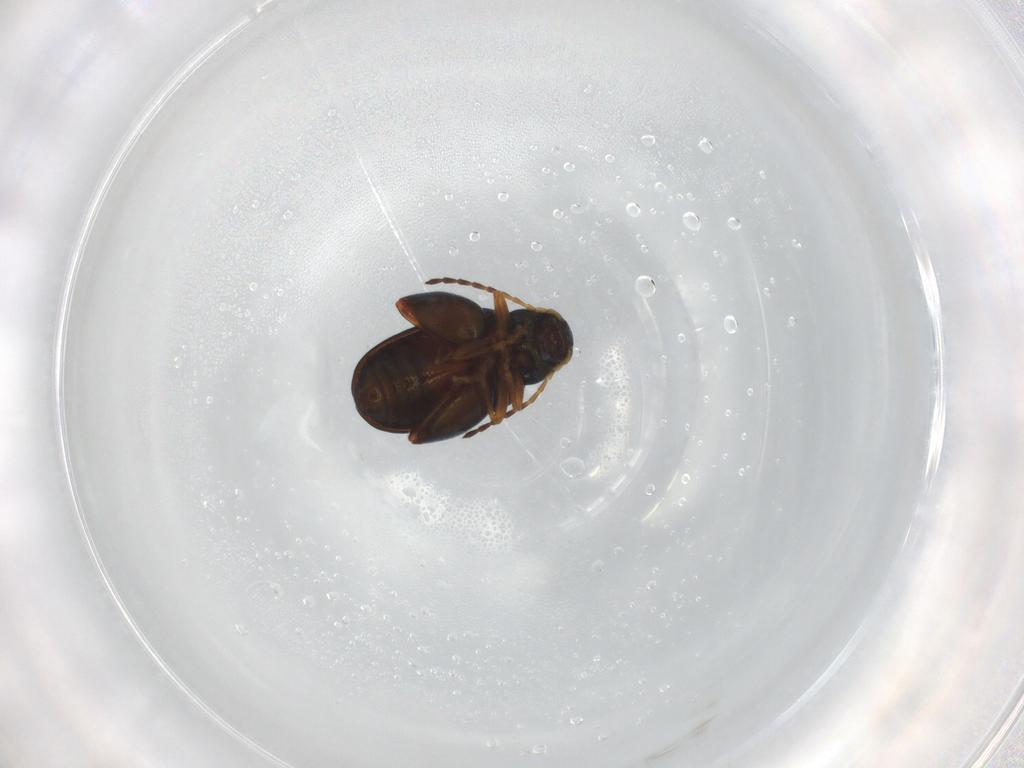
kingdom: Animalia
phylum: Arthropoda
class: Insecta
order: Coleoptera
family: Chrysomelidae
